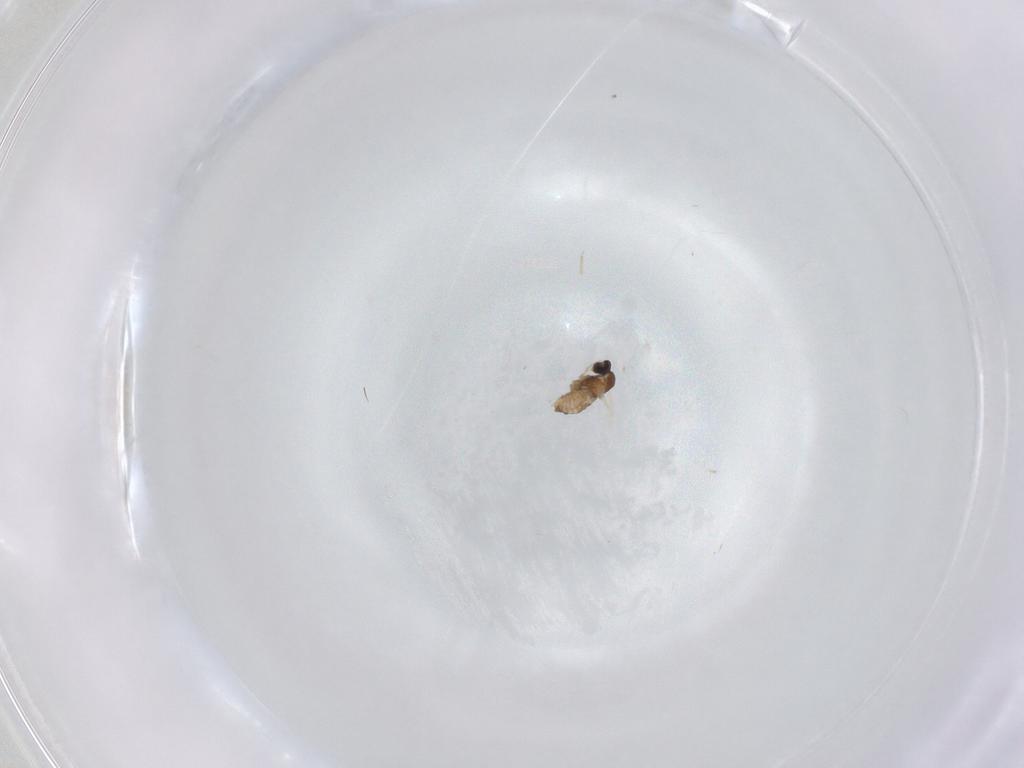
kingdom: Animalia
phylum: Arthropoda
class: Insecta
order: Diptera
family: Cecidomyiidae
